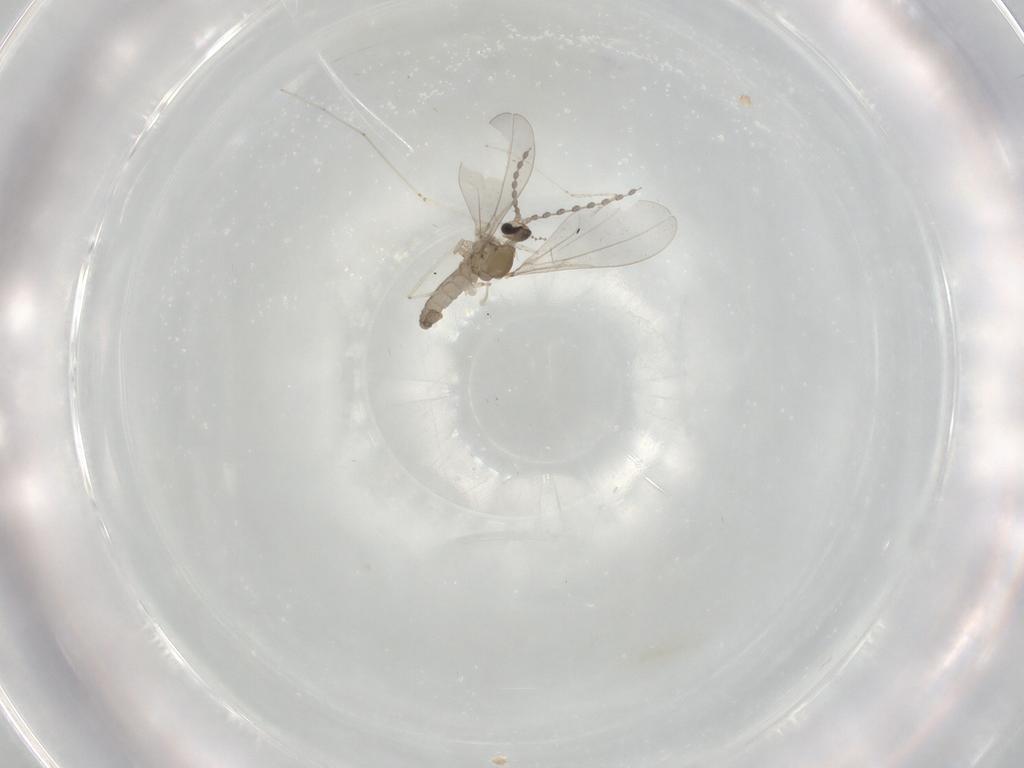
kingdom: Animalia
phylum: Arthropoda
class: Insecta
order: Diptera
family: Cecidomyiidae
